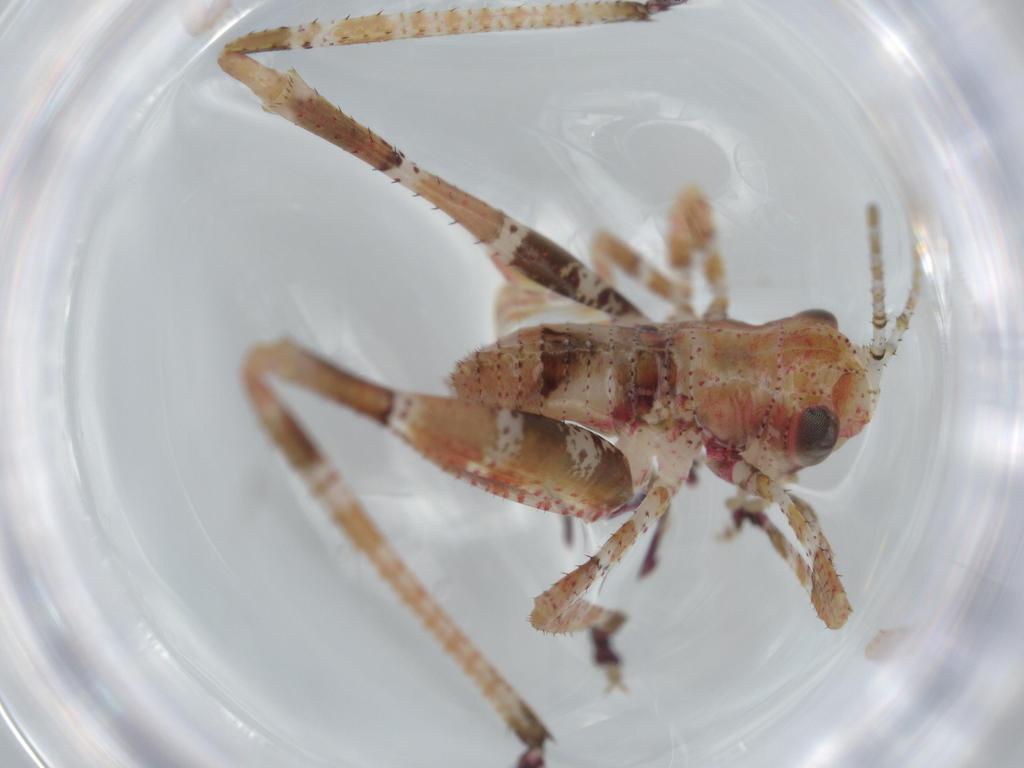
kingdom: Animalia
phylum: Arthropoda
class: Insecta
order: Orthoptera
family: Tettigoniidae
